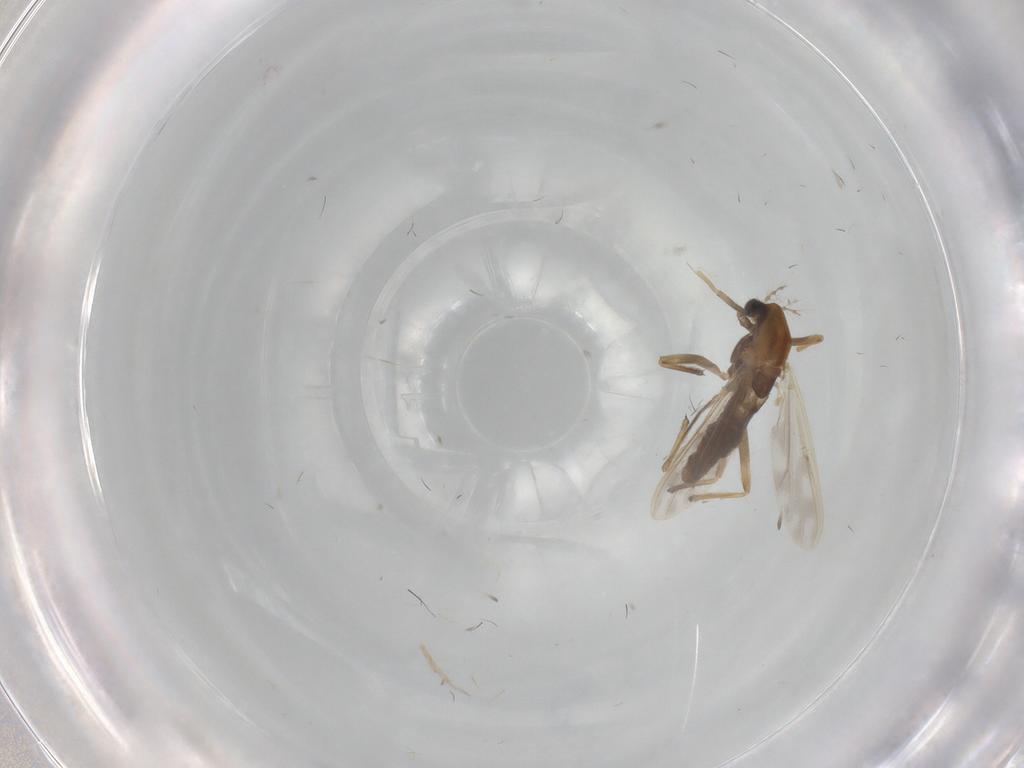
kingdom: Animalia
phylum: Arthropoda
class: Insecta
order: Diptera
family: Chironomidae
